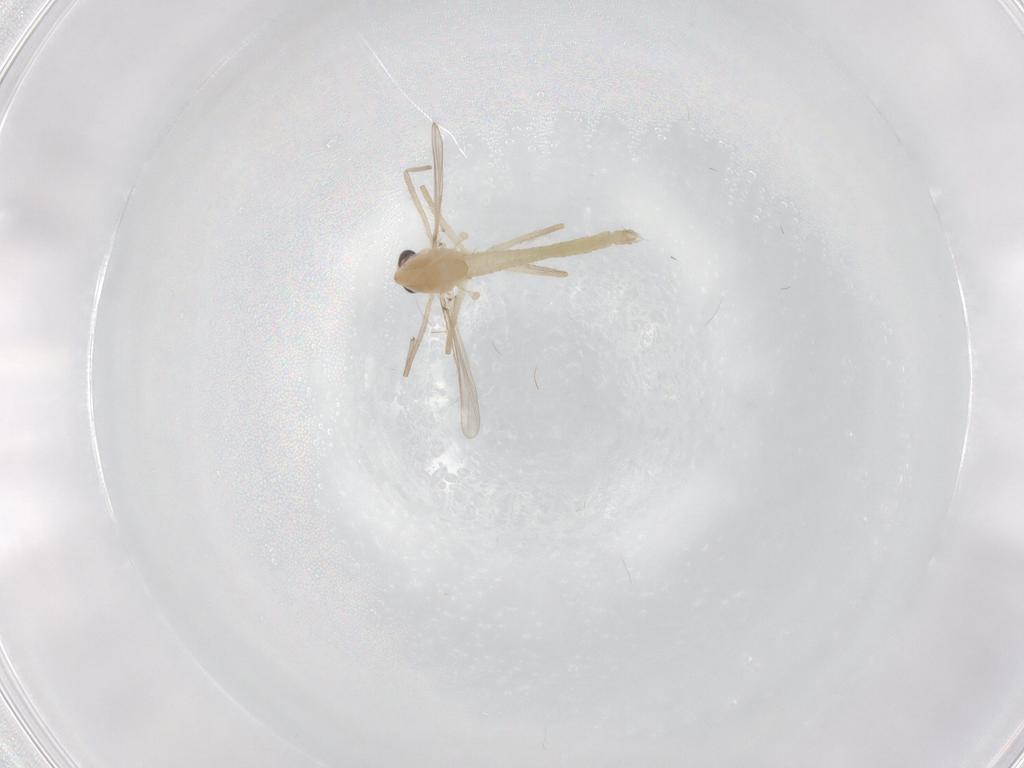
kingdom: Animalia
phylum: Arthropoda
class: Insecta
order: Diptera
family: Chironomidae
